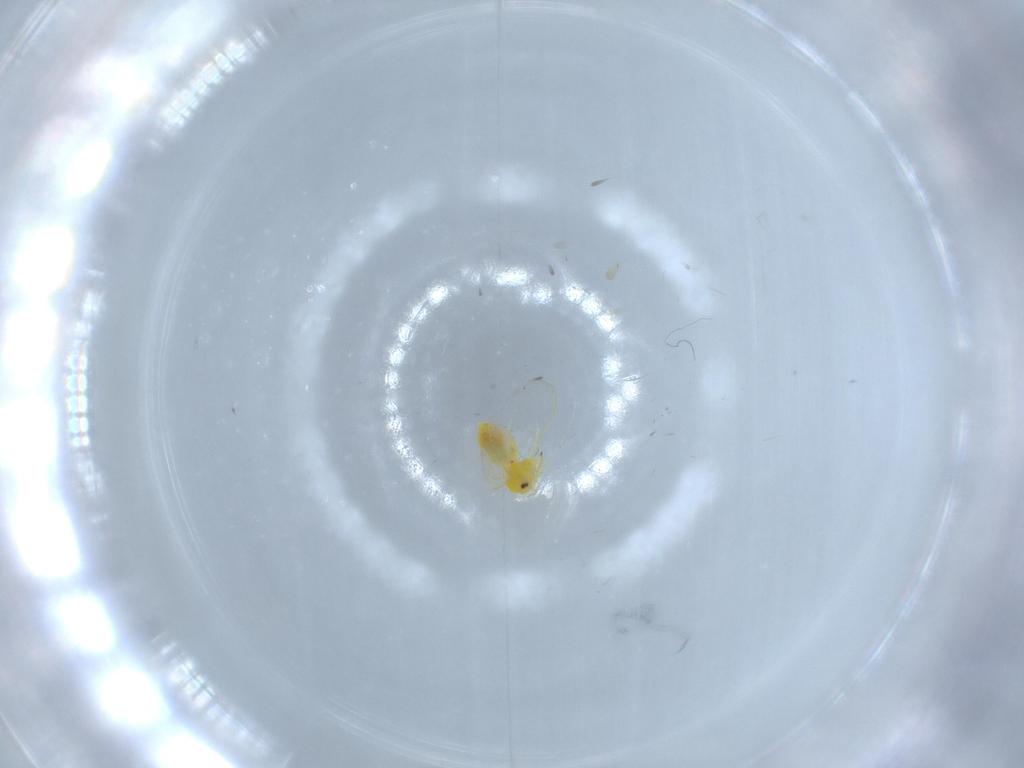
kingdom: Animalia
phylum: Arthropoda
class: Insecta
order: Hemiptera
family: Aleyrodidae
